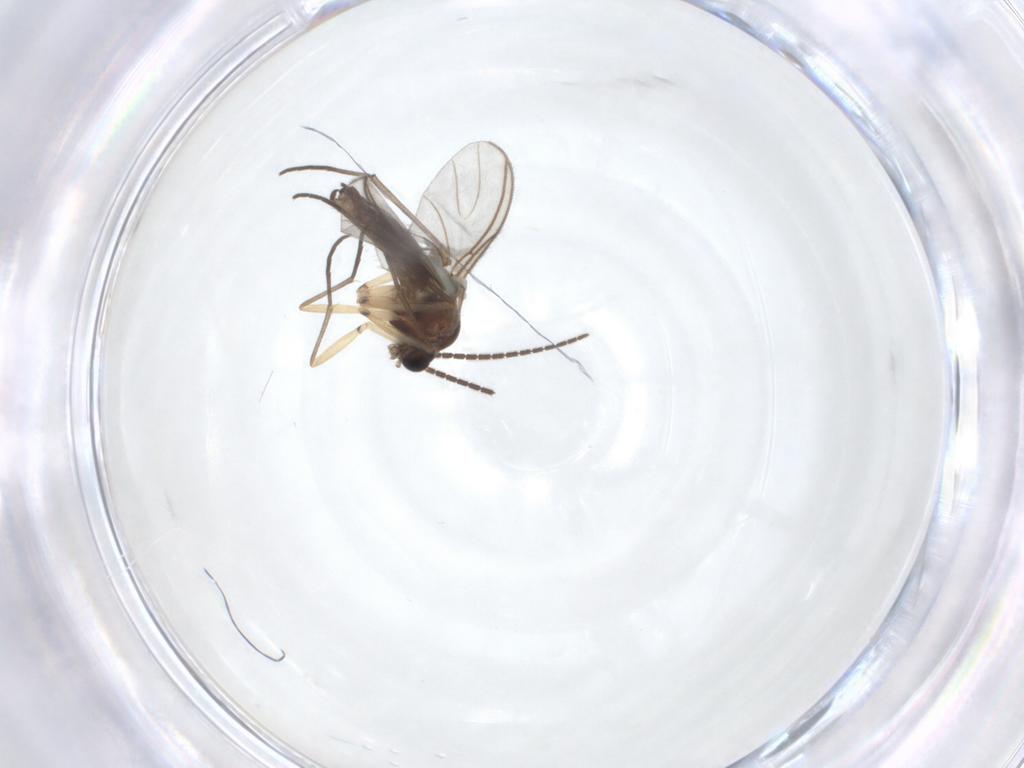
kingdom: Animalia
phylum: Arthropoda
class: Insecta
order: Diptera
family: Sciaridae
